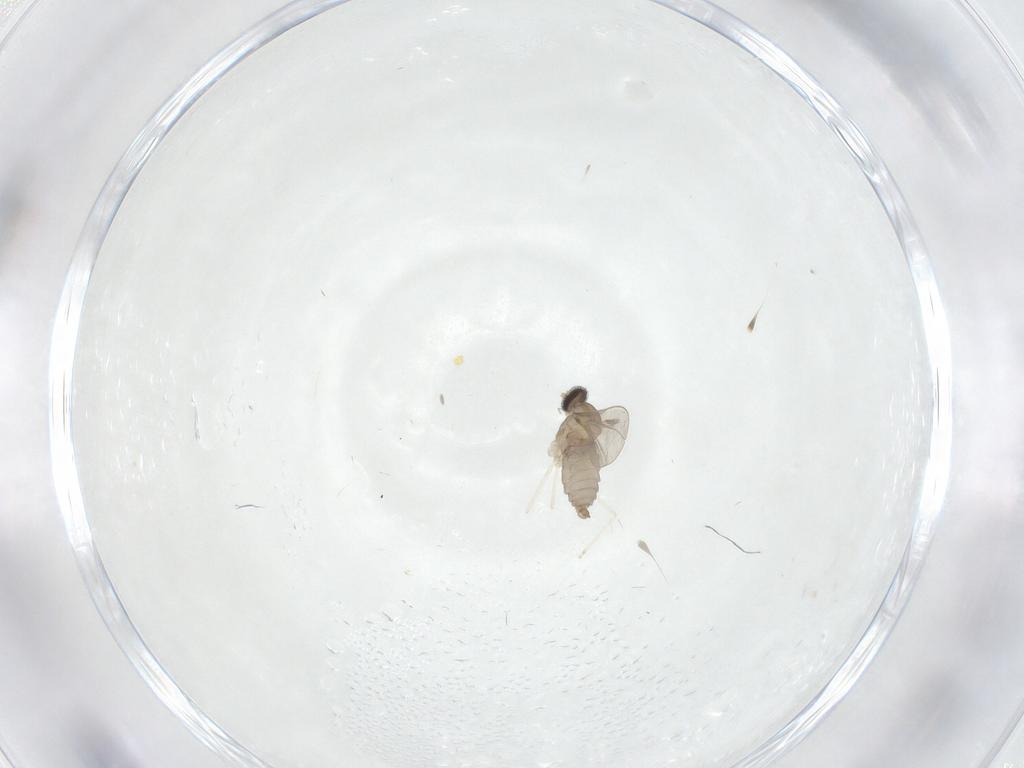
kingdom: Animalia
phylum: Arthropoda
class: Insecta
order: Diptera
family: Cecidomyiidae
